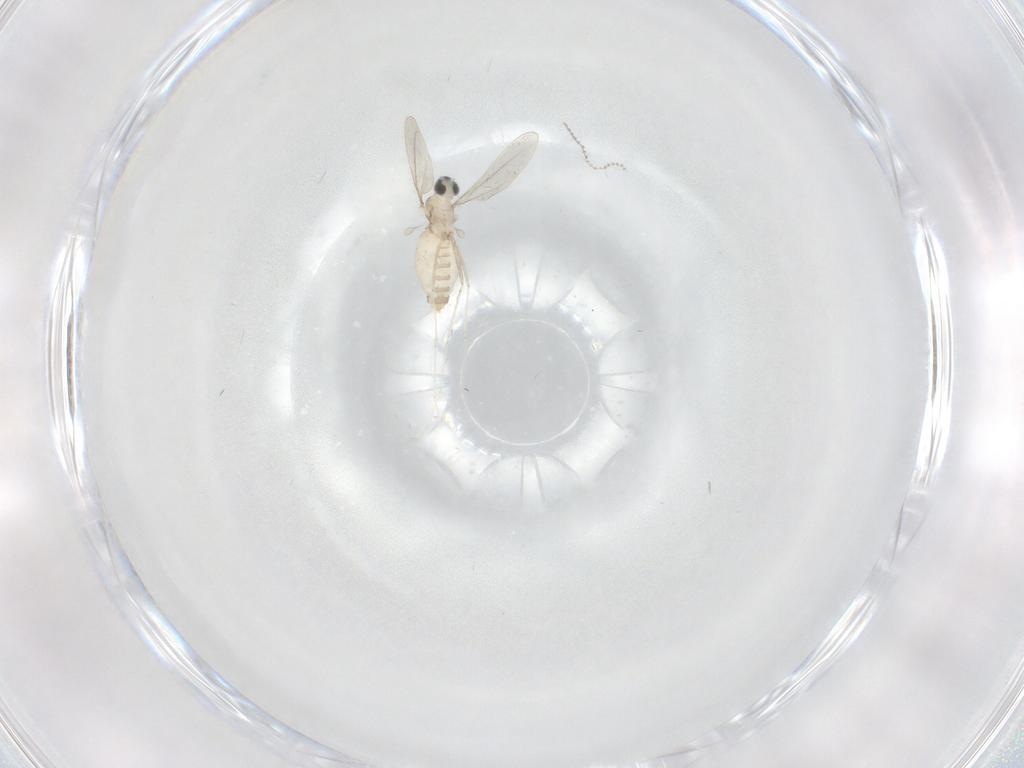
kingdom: Animalia
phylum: Arthropoda
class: Insecta
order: Diptera
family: Cecidomyiidae
